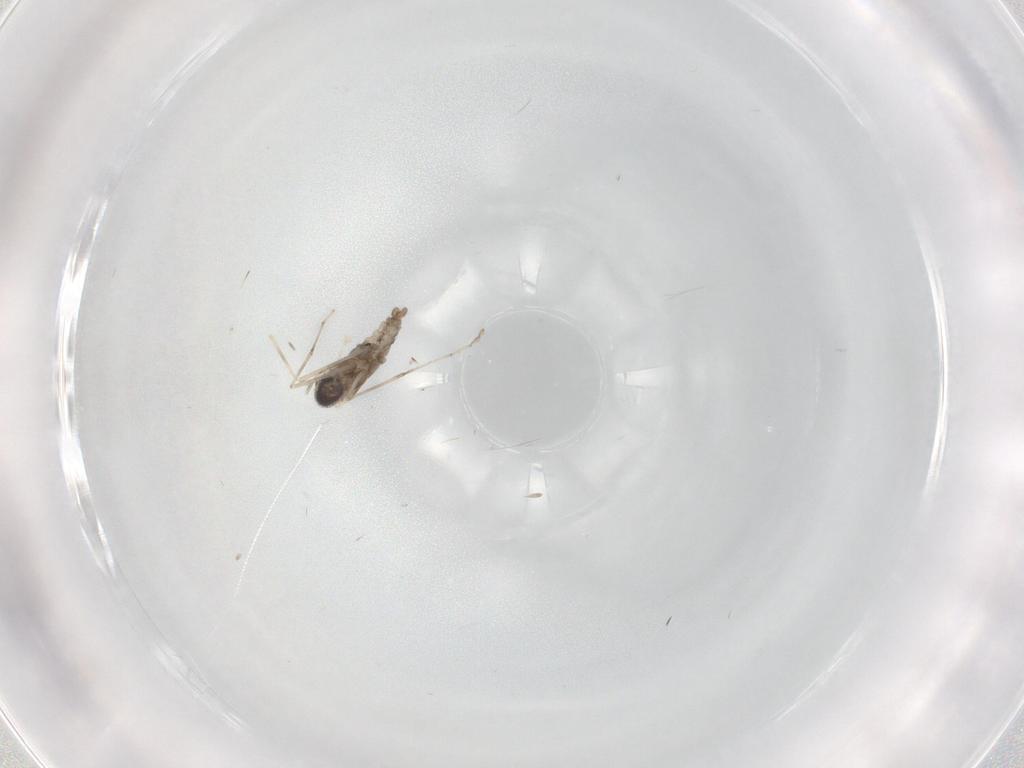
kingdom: Animalia
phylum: Arthropoda
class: Insecta
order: Diptera
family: Cecidomyiidae
